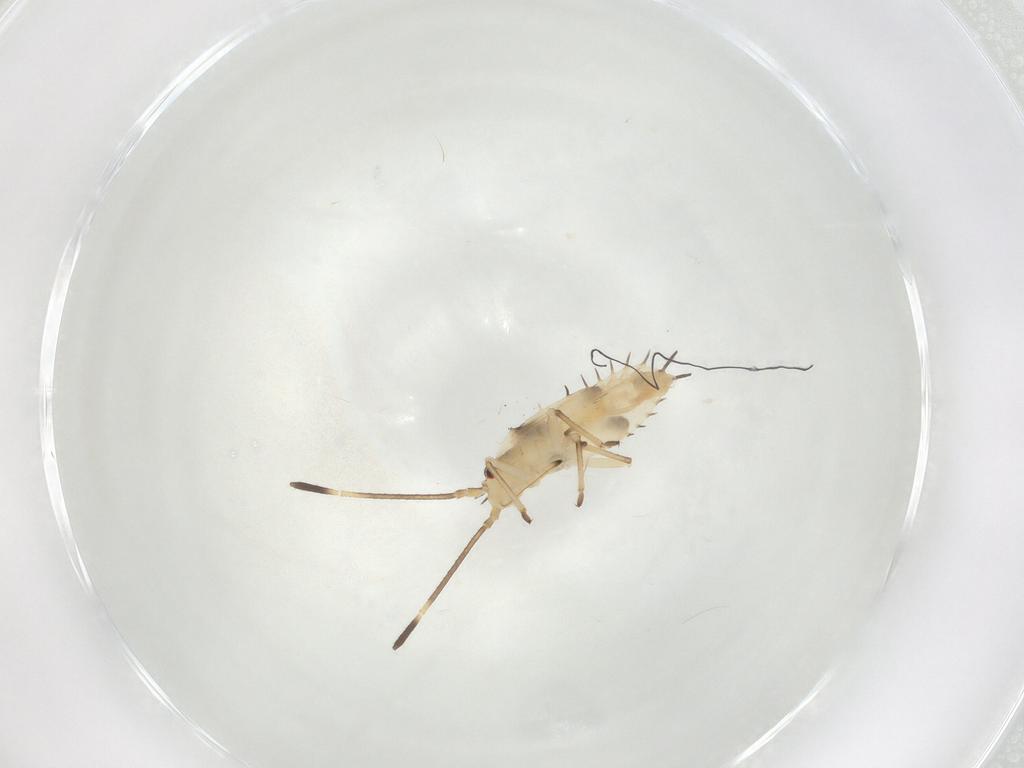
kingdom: Animalia
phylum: Arthropoda
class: Insecta
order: Hemiptera
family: Tingidae
